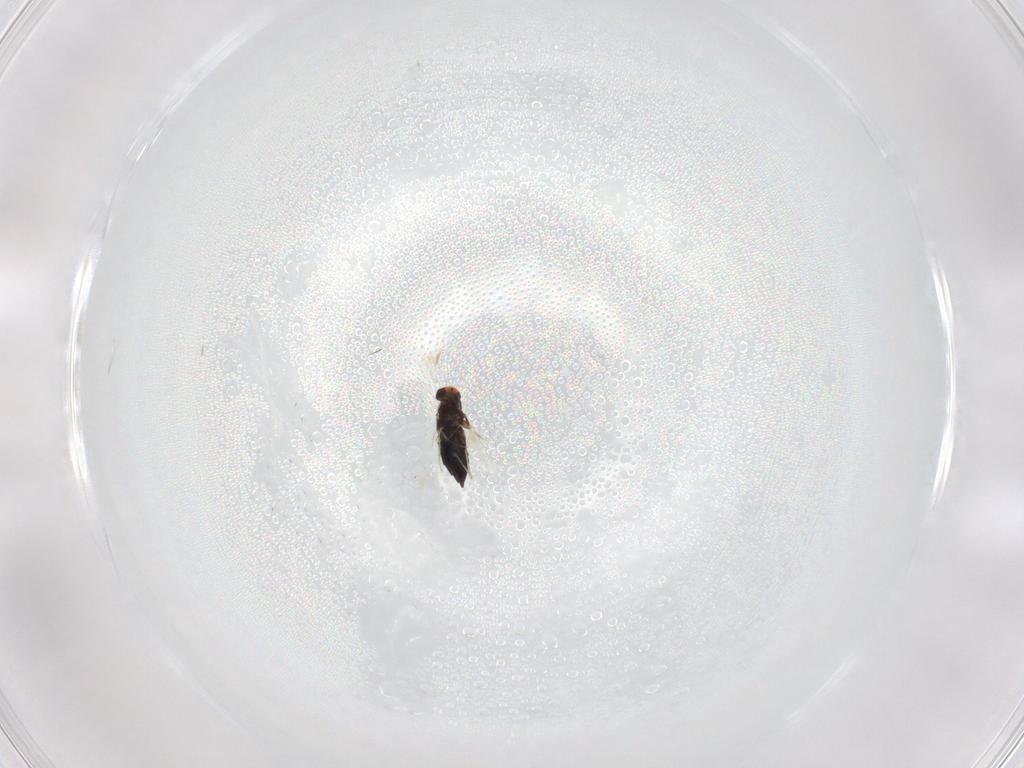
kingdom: Animalia
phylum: Arthropoda
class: Insecta
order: Hymenoptera
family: Signiphoridae
